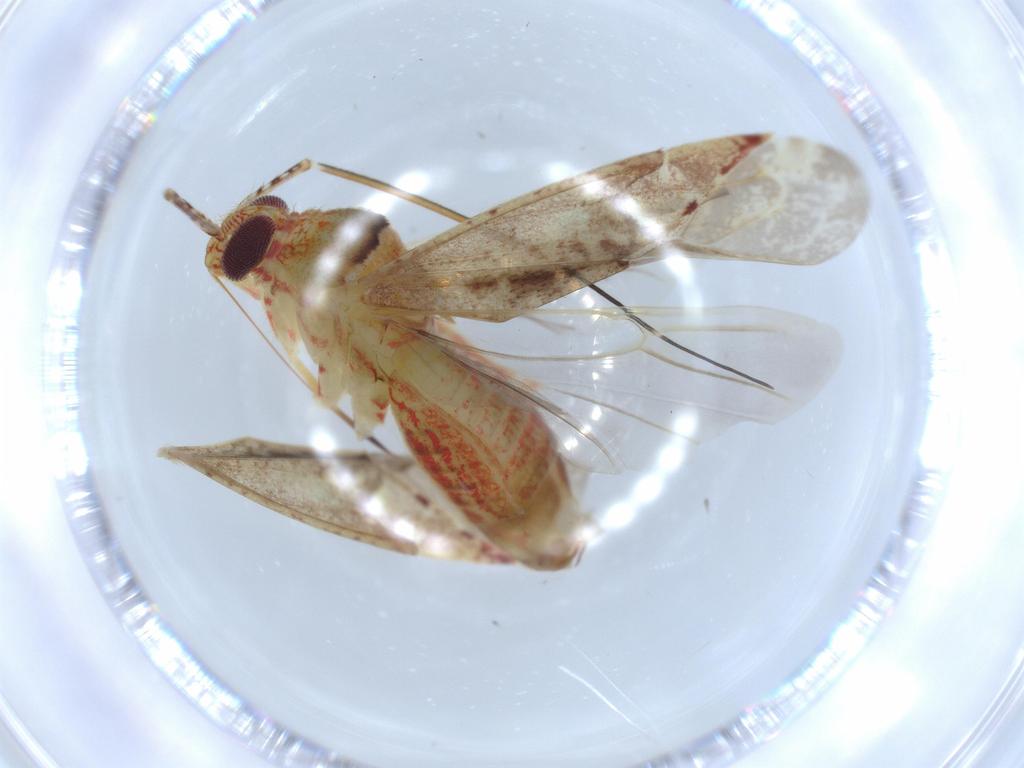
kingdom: Animalia
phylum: Arthropoda
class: Insecta
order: Hemiptera
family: Miridae
